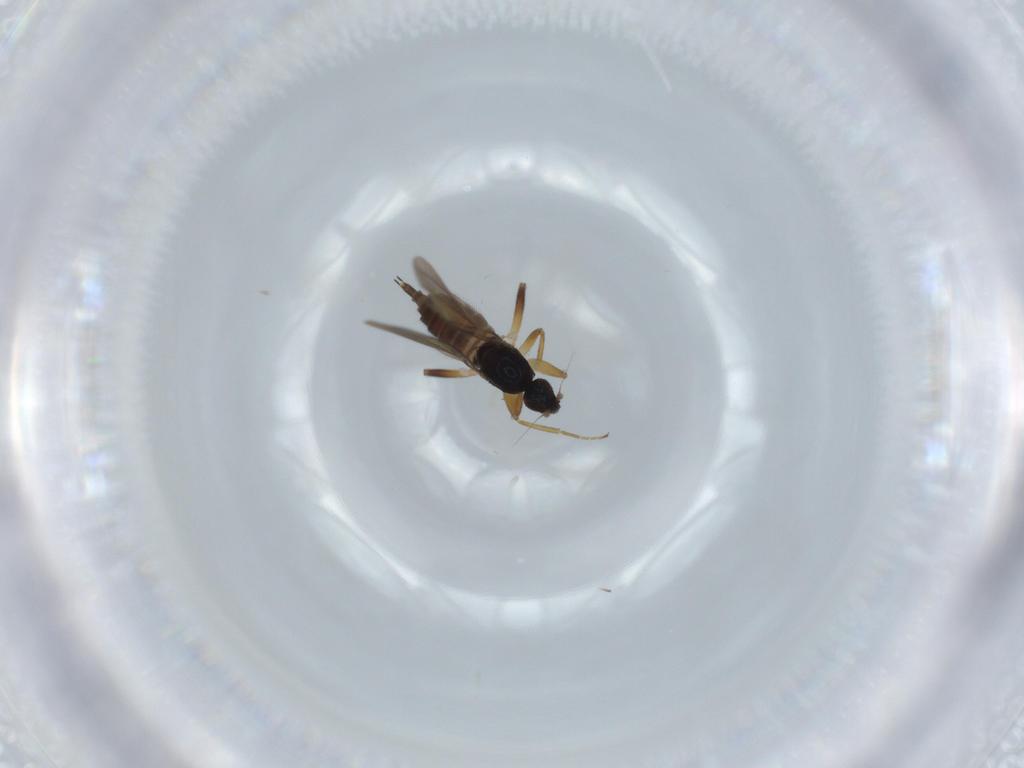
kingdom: Animalia
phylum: Arthropoda
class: Insecta
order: Diptera
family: Hybotidae
